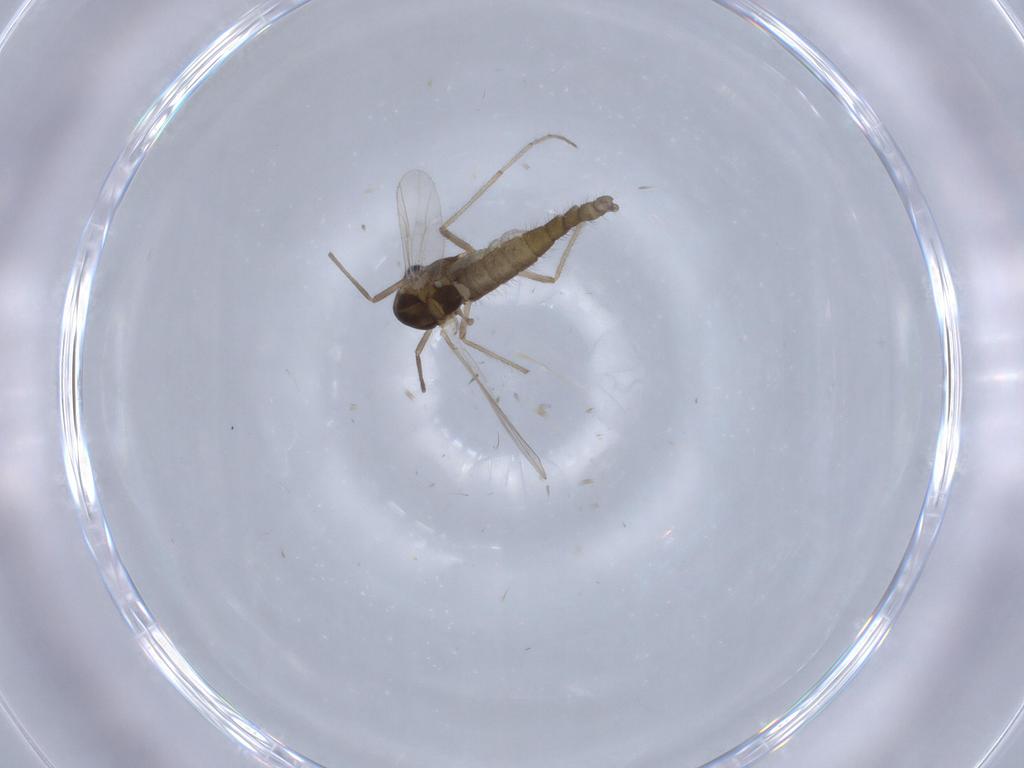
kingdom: Animalia
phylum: Arthropoda
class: Insecta
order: Diptera
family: Chironomidae
